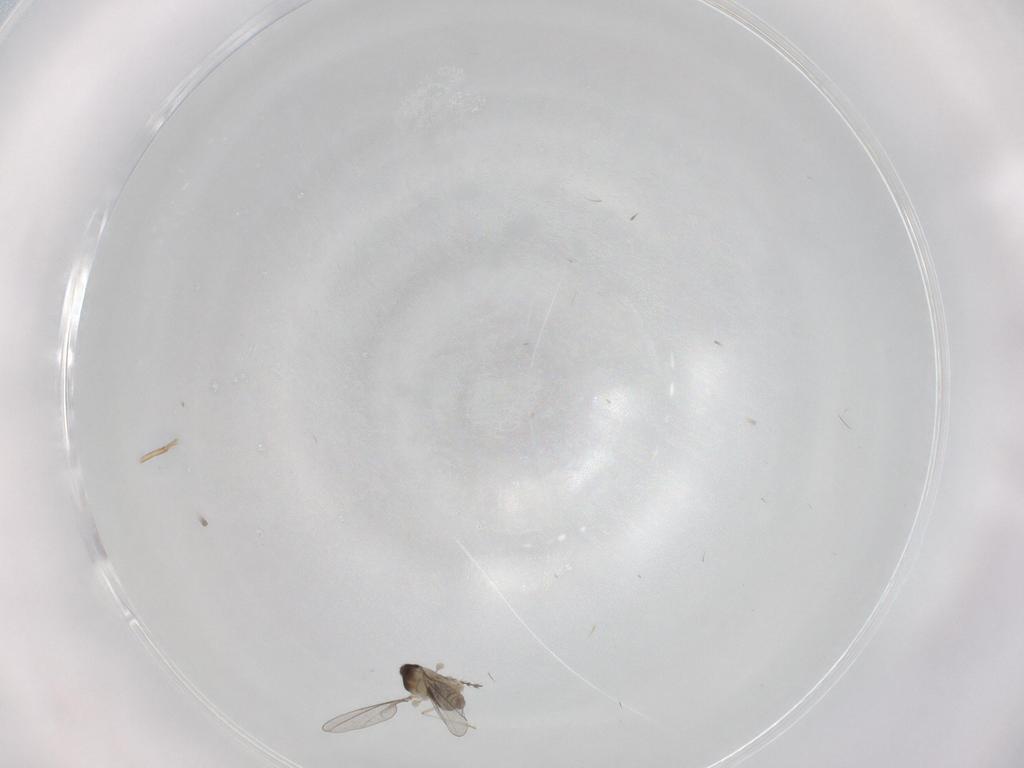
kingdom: Animalia
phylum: Arthropoda
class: Insecta
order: Diptera
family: Cecidomyiidae
